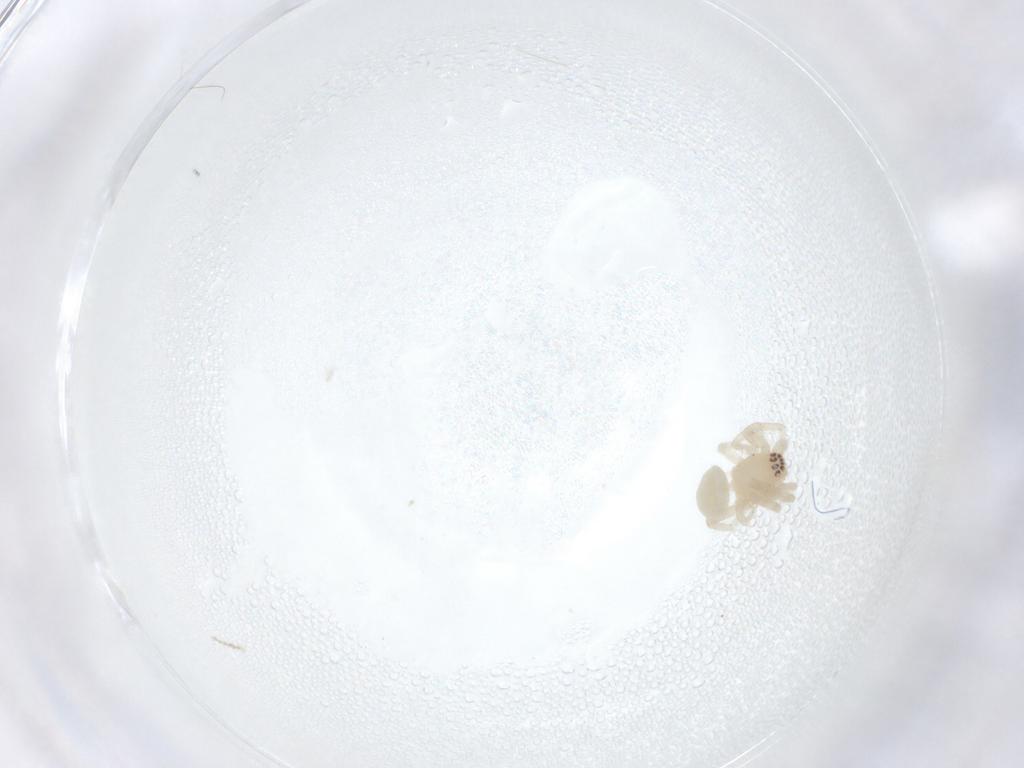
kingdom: Animalia
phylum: Arthropoda
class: Arachnida
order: Araneae
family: Anyphaenidae
